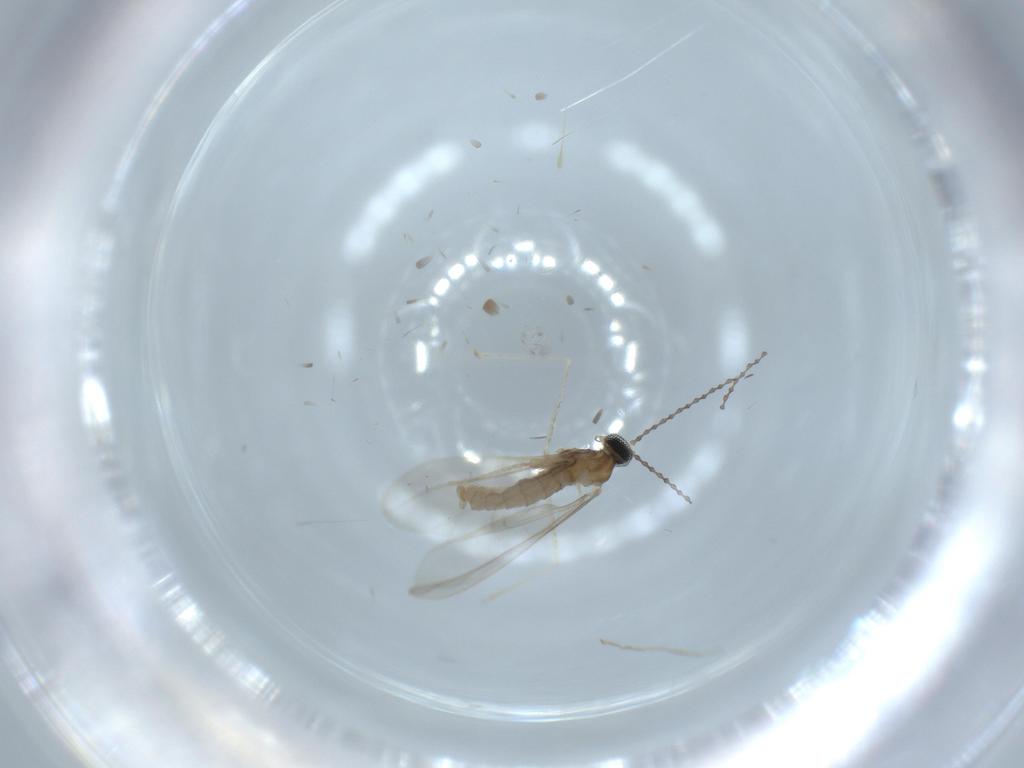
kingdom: Animalia
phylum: Arthropoda
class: Insecta
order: Diptera
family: Cecidomyiidae
